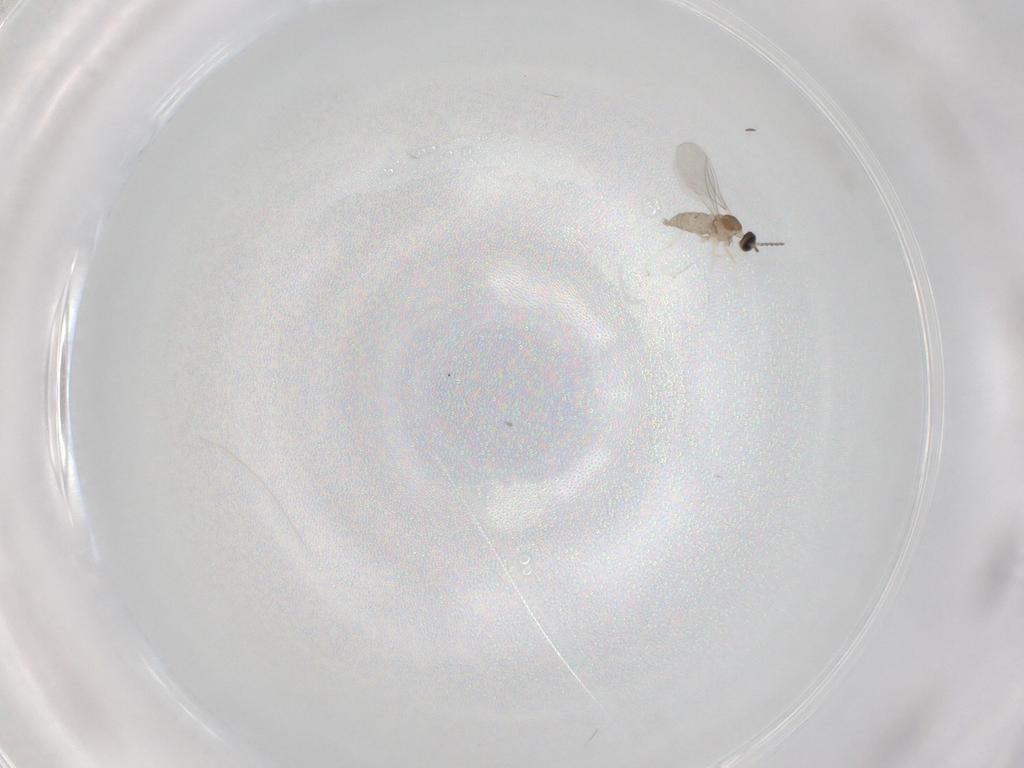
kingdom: Animalia
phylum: Arthropoda
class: Insecta
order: Diptera
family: Cecidomyiidae
